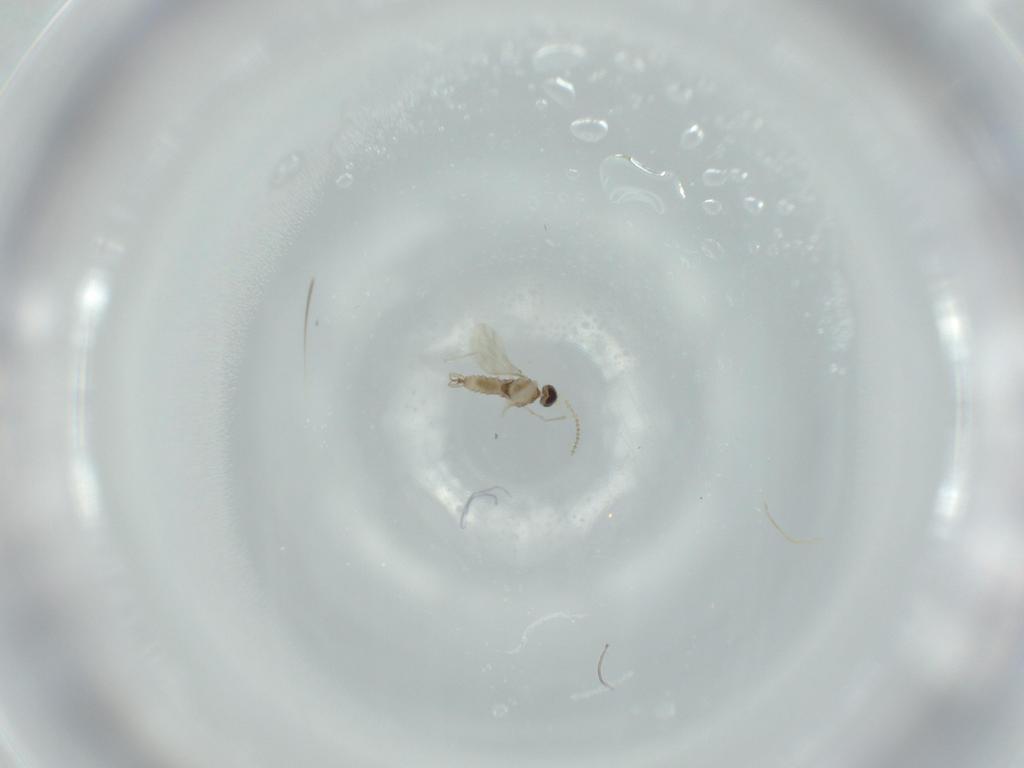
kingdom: Animalia
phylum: Arthropoda
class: Insecta
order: Diptera
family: Cecidomyiidae
